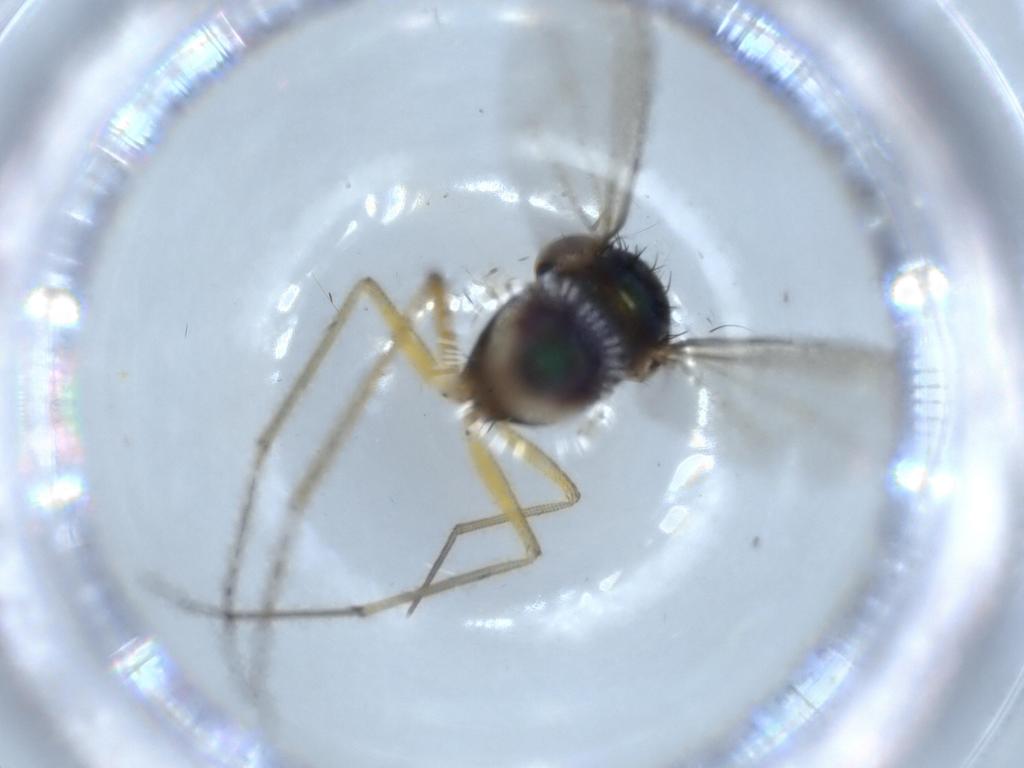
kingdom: Animalia
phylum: Arthropoda
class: Insecta
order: Diptera
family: Dolichopodidae
